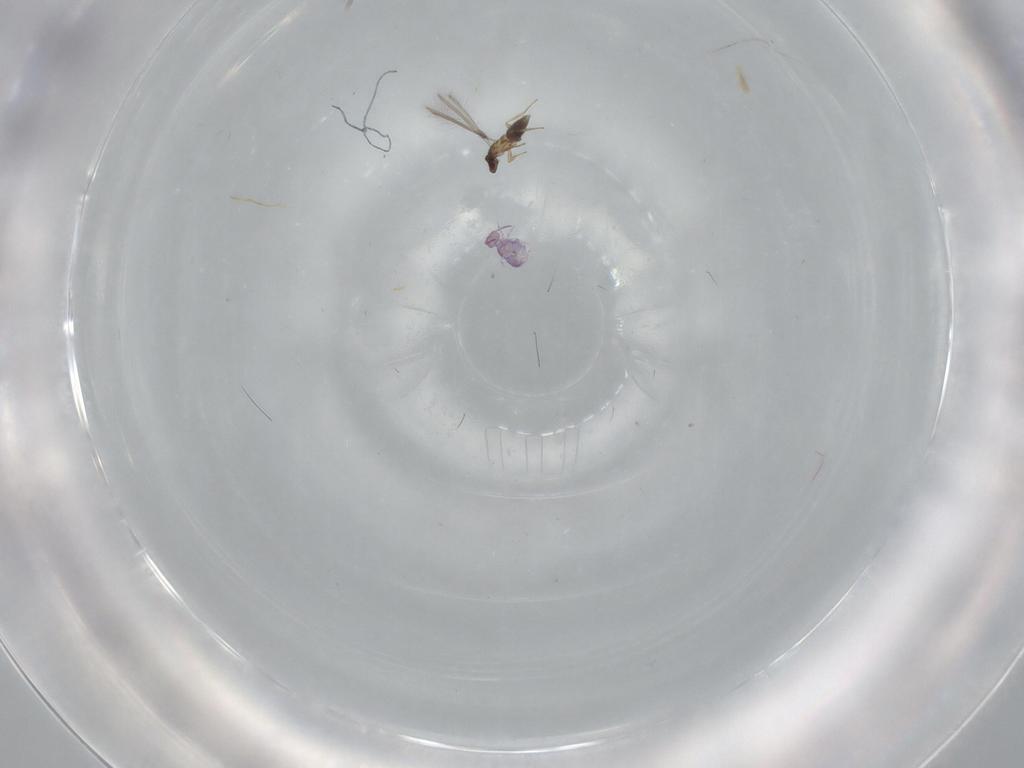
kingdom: Animalia
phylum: Arthropoda
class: Collembola
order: Symphypleona
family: Sminthurididae
